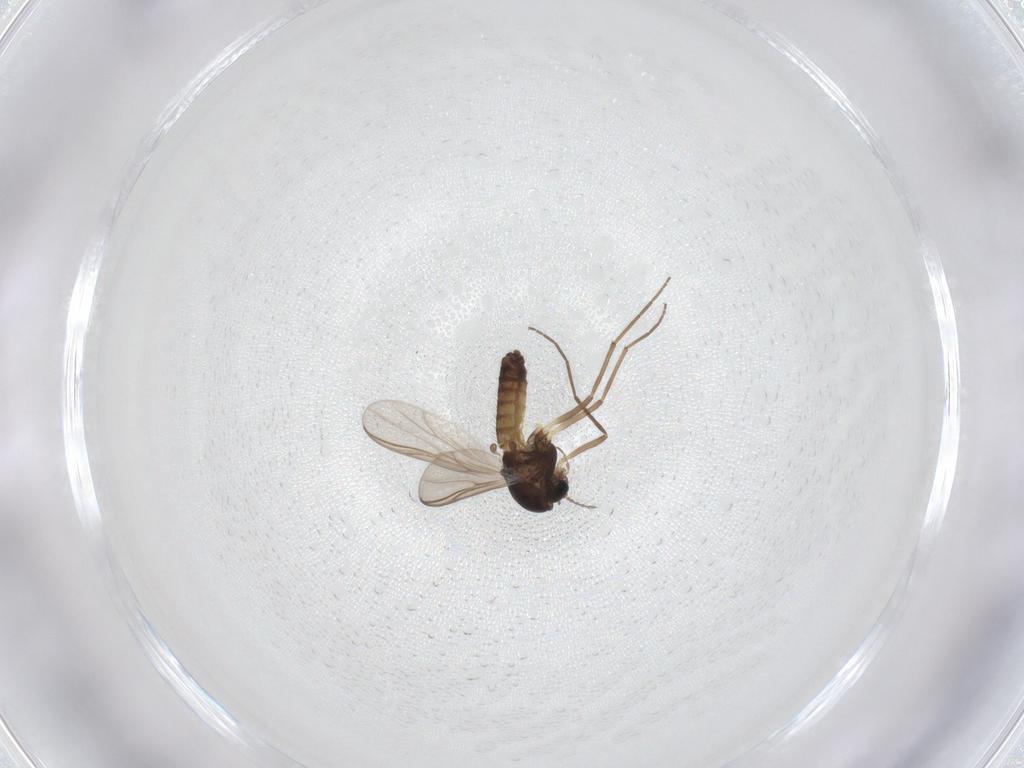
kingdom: Animalia
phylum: Arthropoda
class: Insecta
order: Diptera
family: Chironomidae
